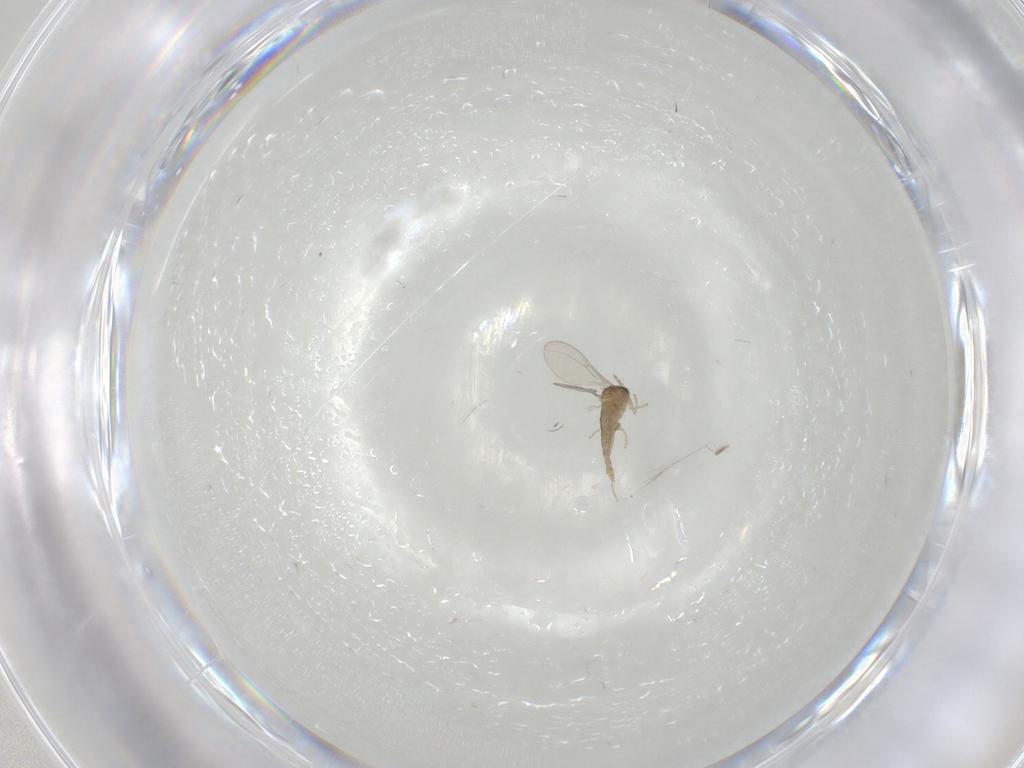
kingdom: Animalia
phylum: Arthropoda
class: Insecta
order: Diptera
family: Cecidomyiidae
